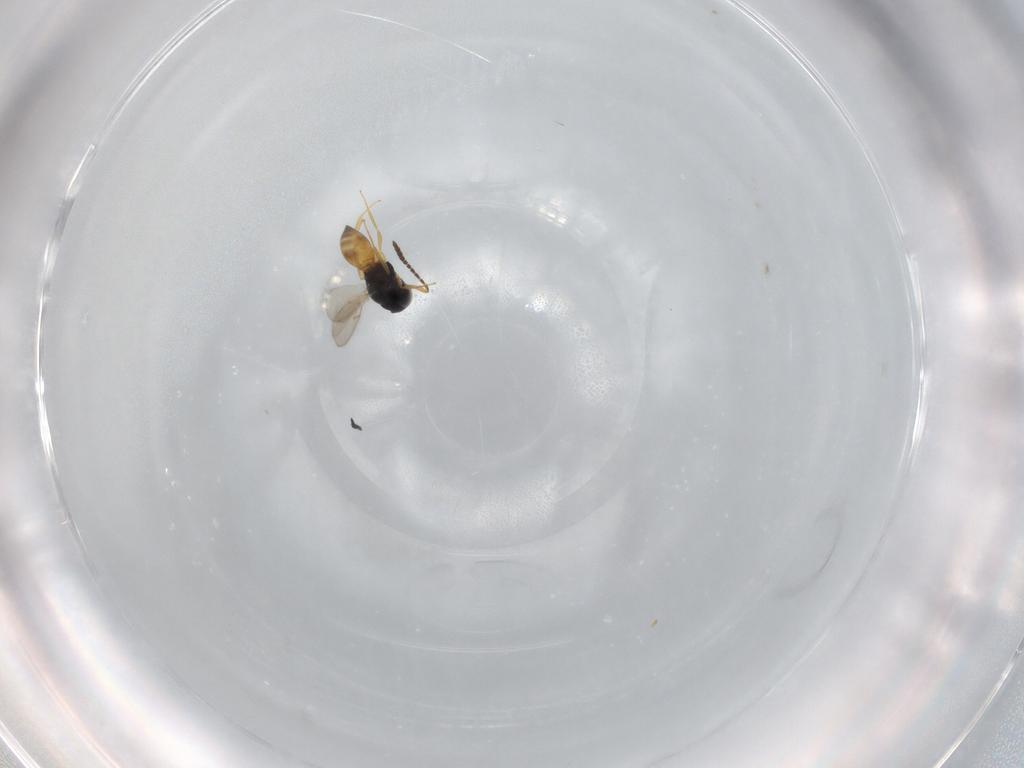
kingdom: Animalia
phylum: Arthropoda
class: Insecta
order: Hymenoptera
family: Scelionidae
